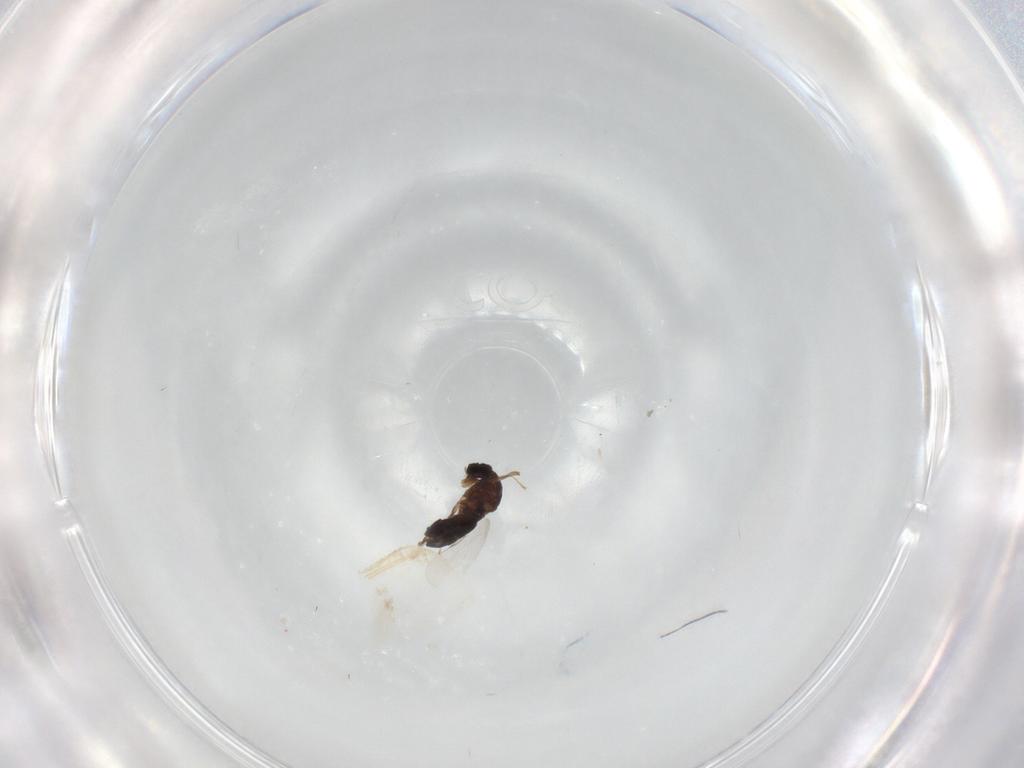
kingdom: Animalia
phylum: Arthropoda
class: Insecta
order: Diptera
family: Scatopsidae
